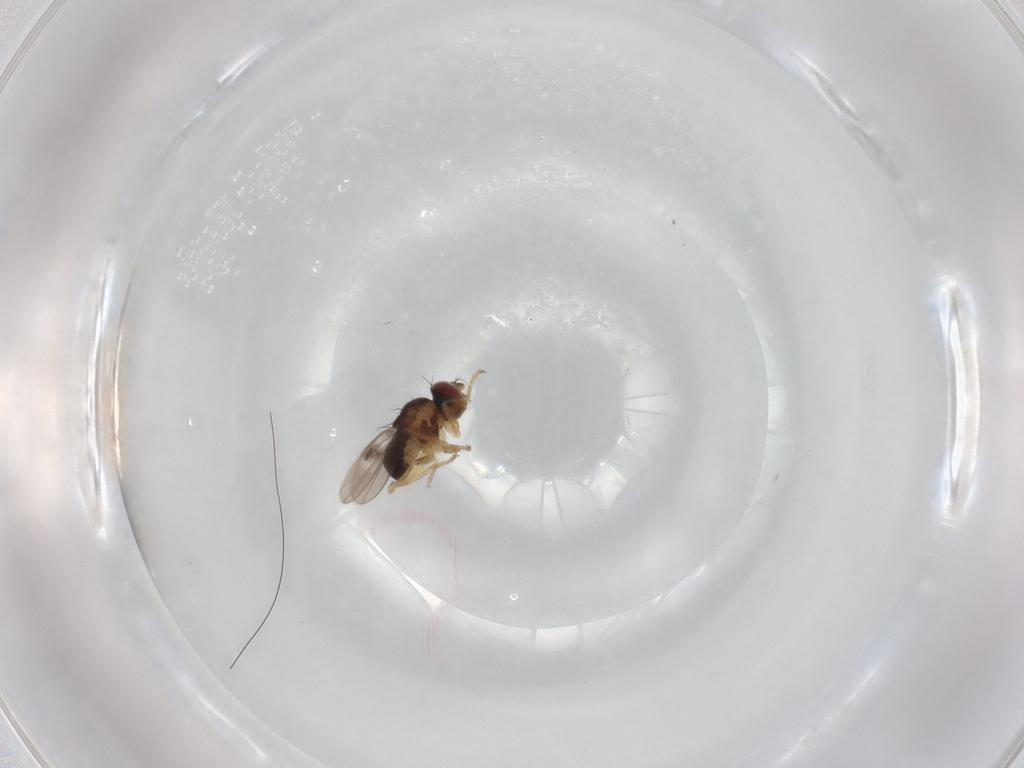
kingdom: Animalia
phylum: Arthropoda
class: Insecta
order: Diptera
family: Ephydridae
